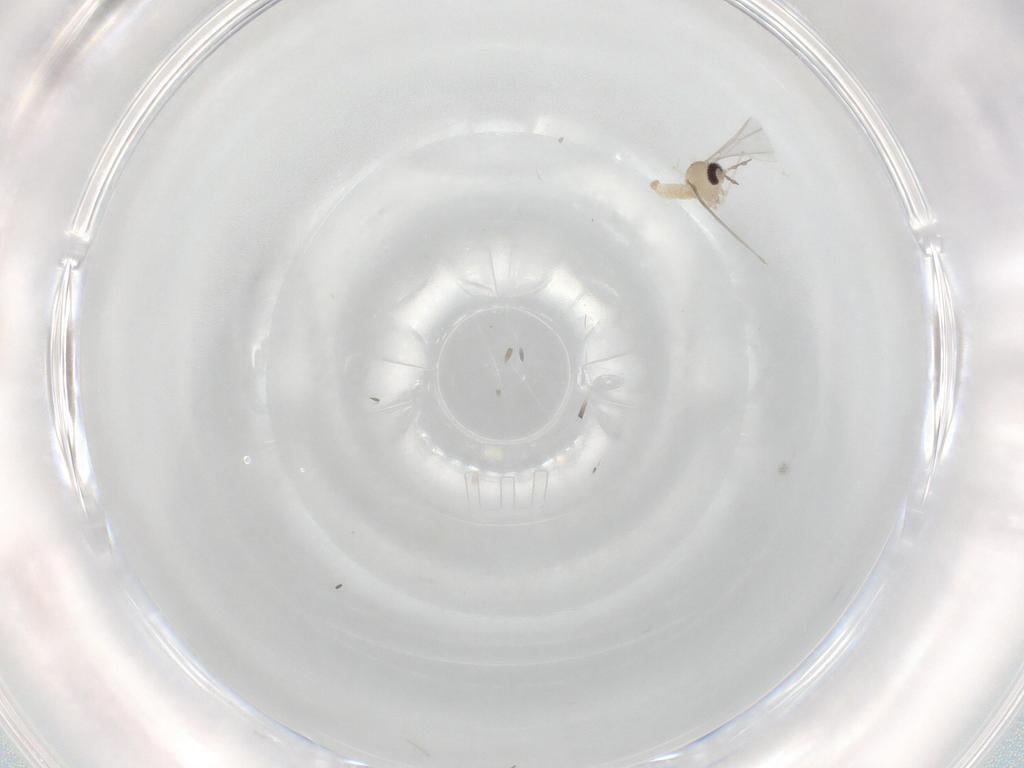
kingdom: Animalia
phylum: Arthropoda
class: Insecta
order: Diptera
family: Cecidomyiidae
